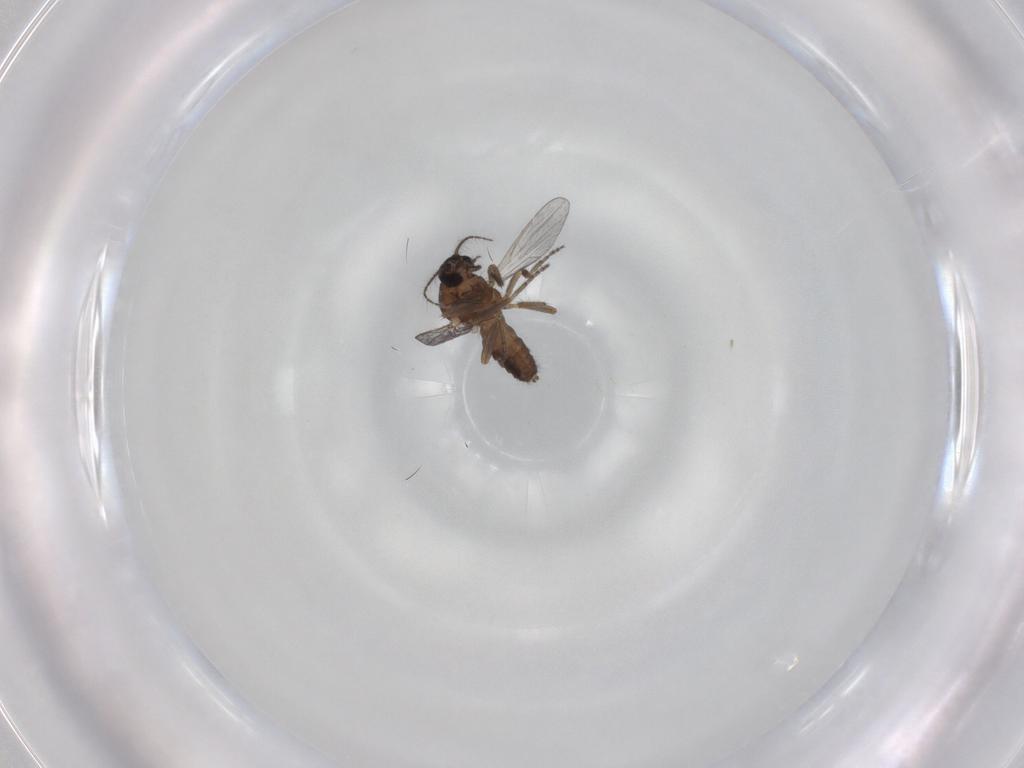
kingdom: Animalia
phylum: Arthropoda
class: Insecta
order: Diptera
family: Ceratopogonidae
